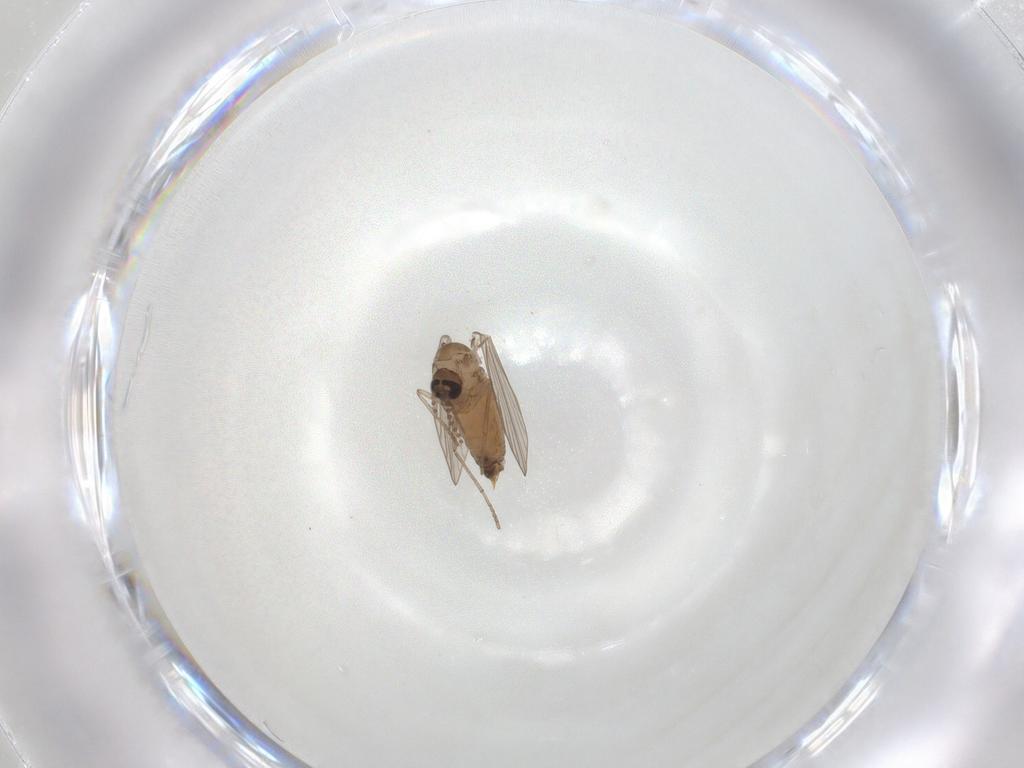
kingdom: Animalia
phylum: Arthropoda
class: Insecta
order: Diptera
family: Psychodidae
